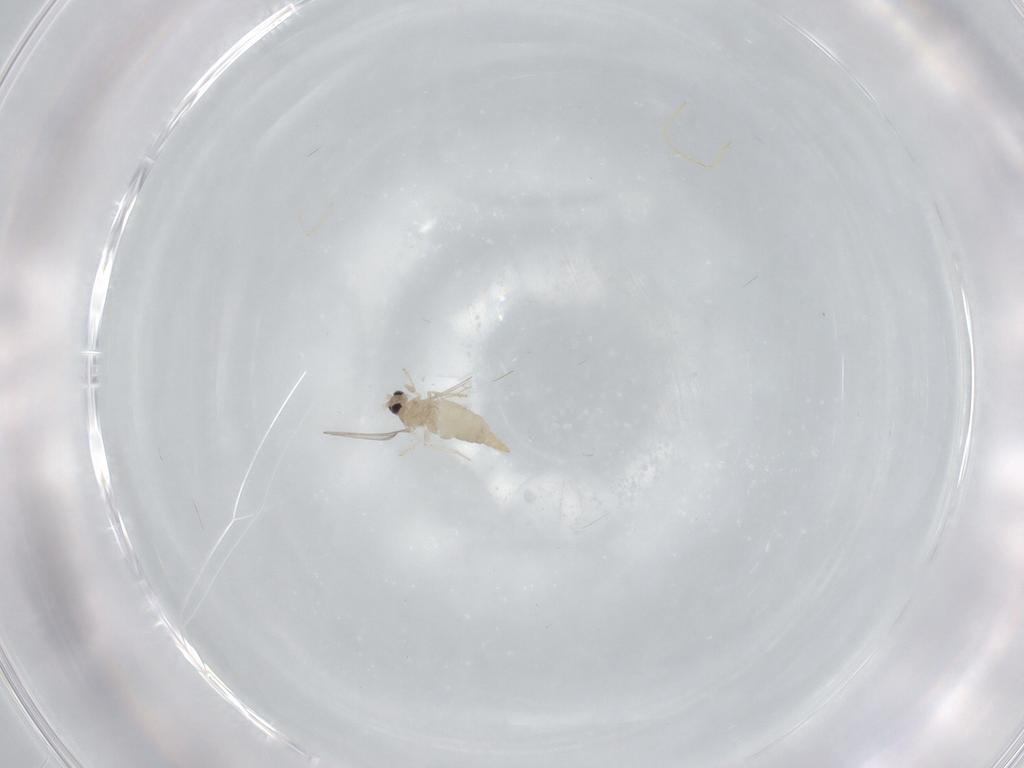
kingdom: Animalia
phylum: Arthropoda
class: Insecta
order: Diptera
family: Cecidomyiidae
